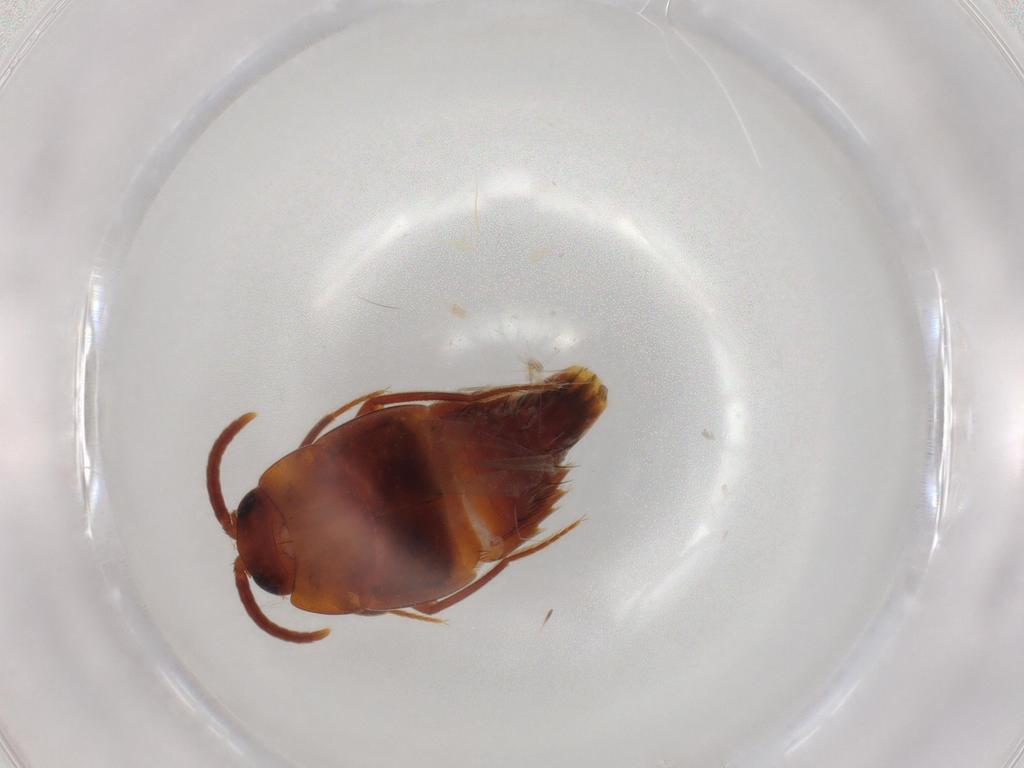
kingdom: Animalia
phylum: Arthropoda
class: Insecta
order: Coleoptera
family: Staphylinidae
